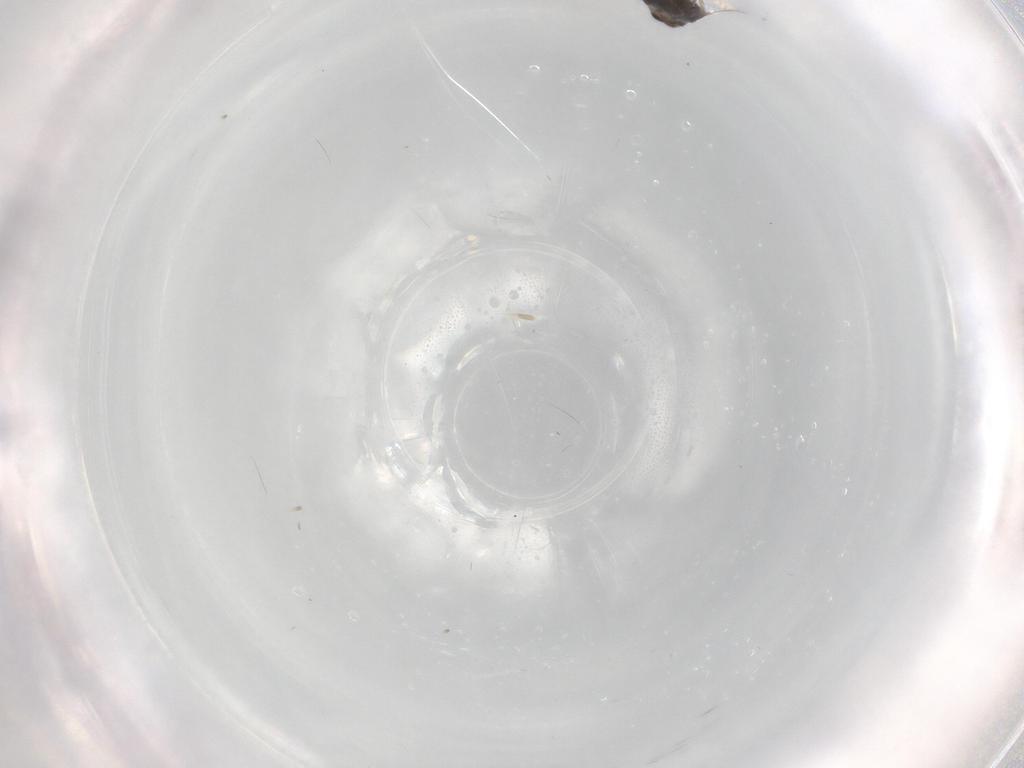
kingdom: Animalia
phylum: Arthropoda
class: Insecta
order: Diptera
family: Phoridae
